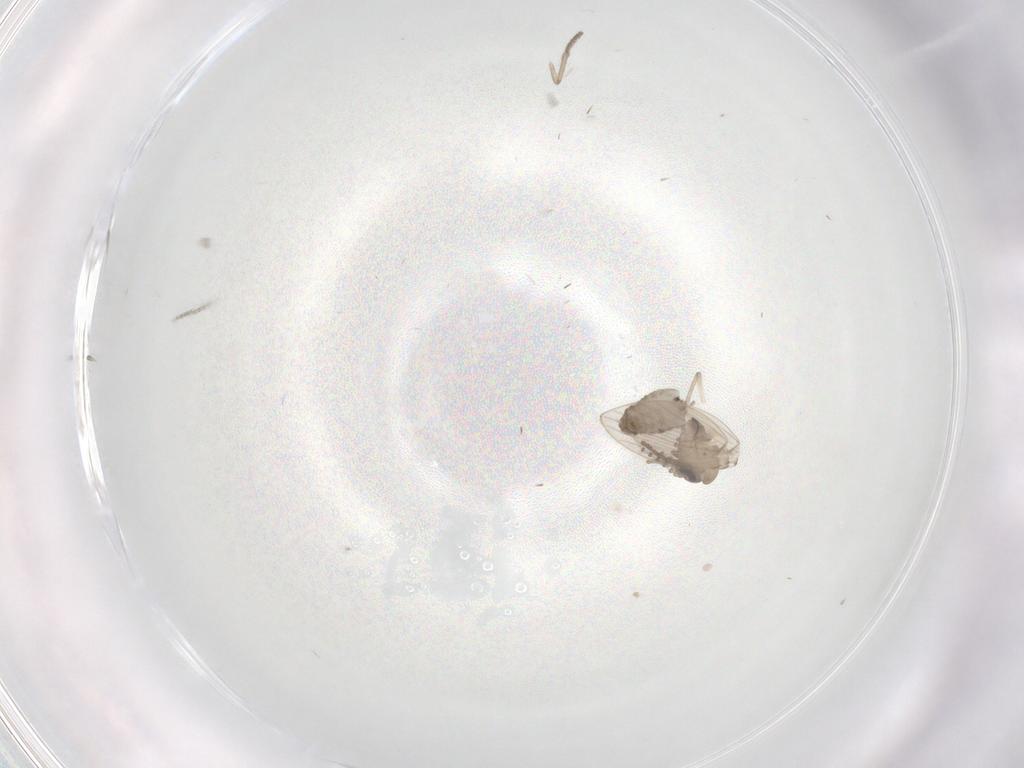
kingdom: Animalia
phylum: Arthropoda
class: Insecta
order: Diptera
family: Psychodidae
